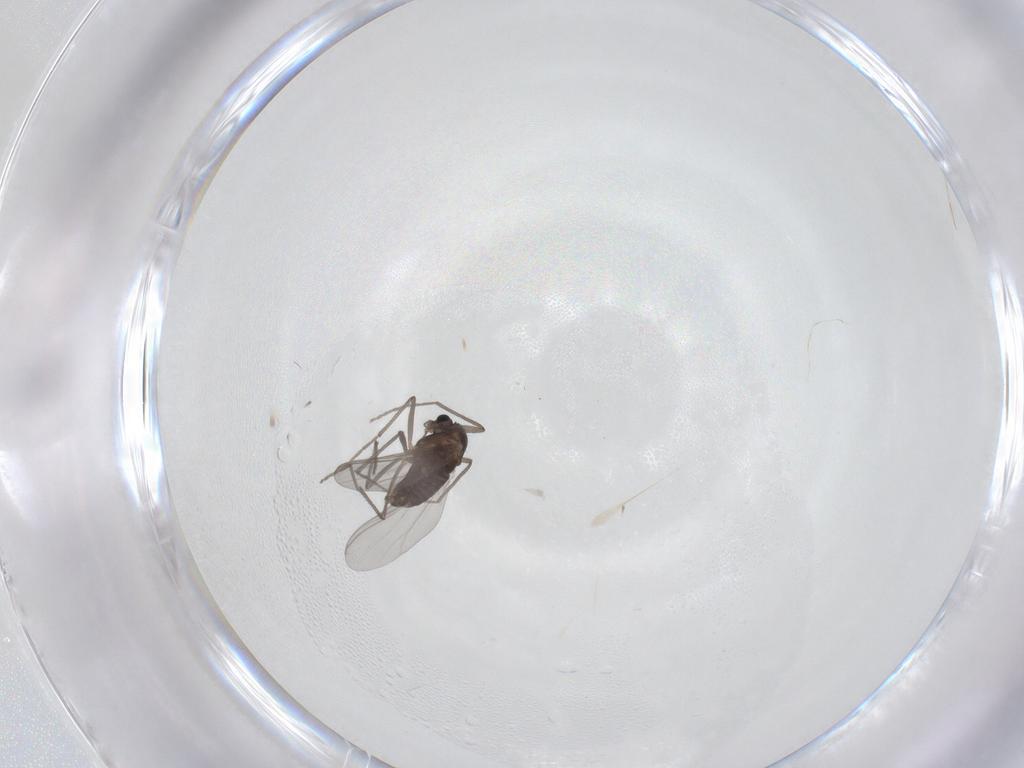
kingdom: Animalia
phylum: Arthropoda
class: Insecta
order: Diptera
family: Chironomidae
